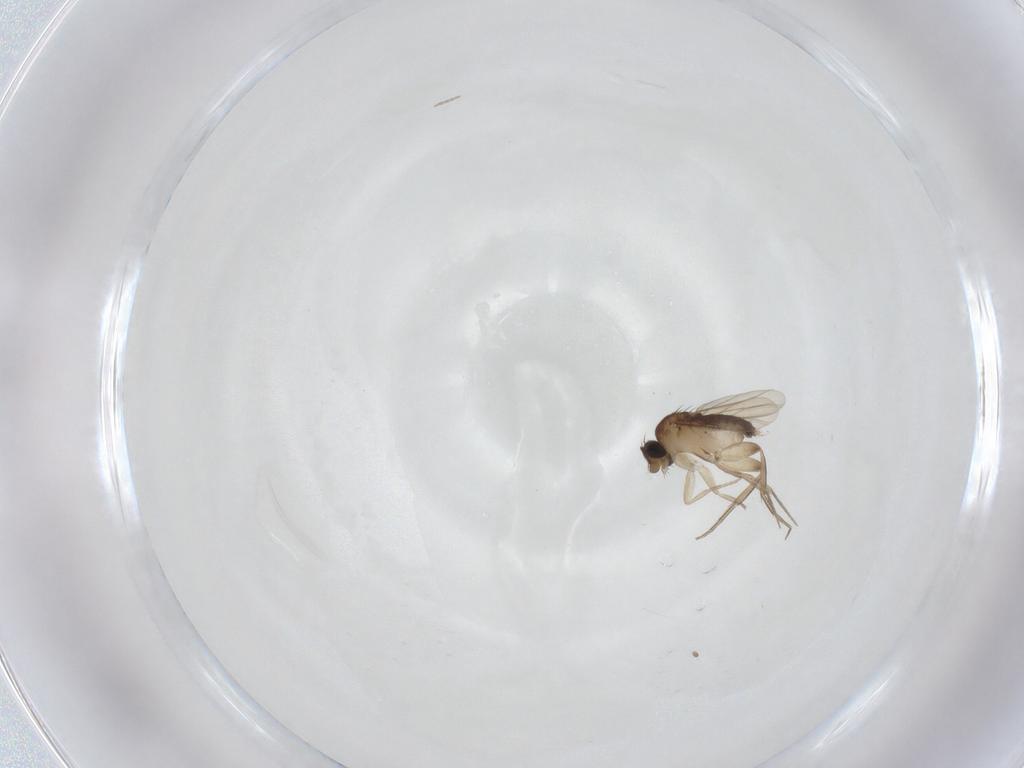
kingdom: Animalia
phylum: Arthropoda
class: Insecta
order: Diptera
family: Phoridae
